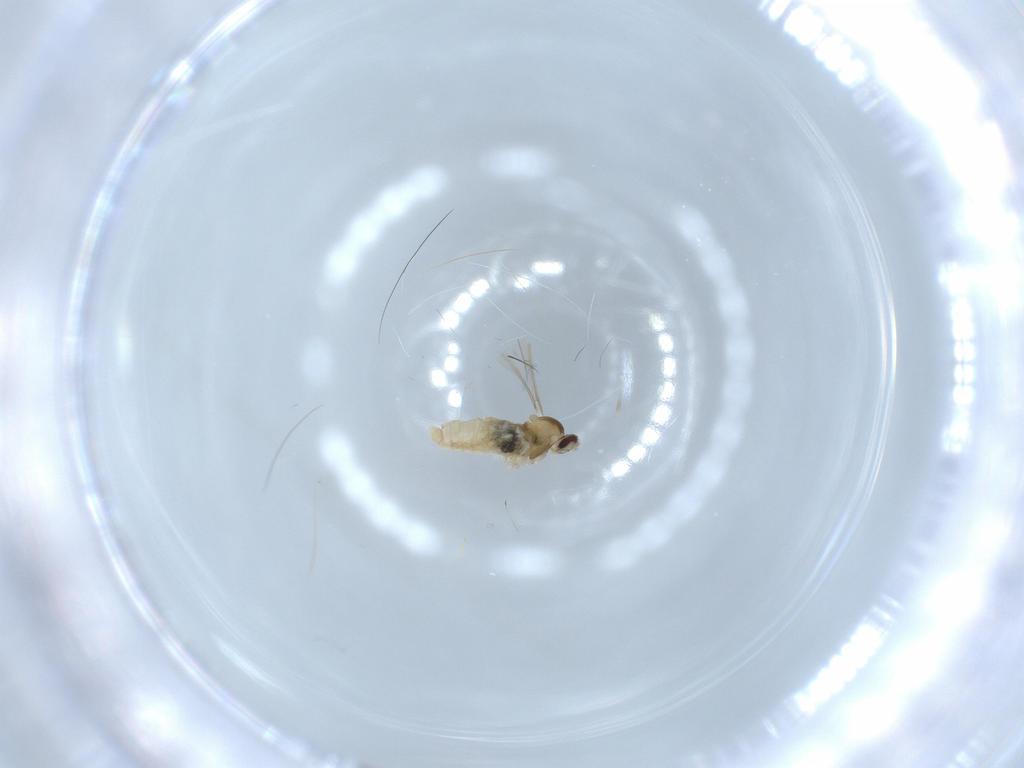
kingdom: Animalia
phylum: Arthropoda
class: Insecta
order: Diptera
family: Cecidomyiidae
